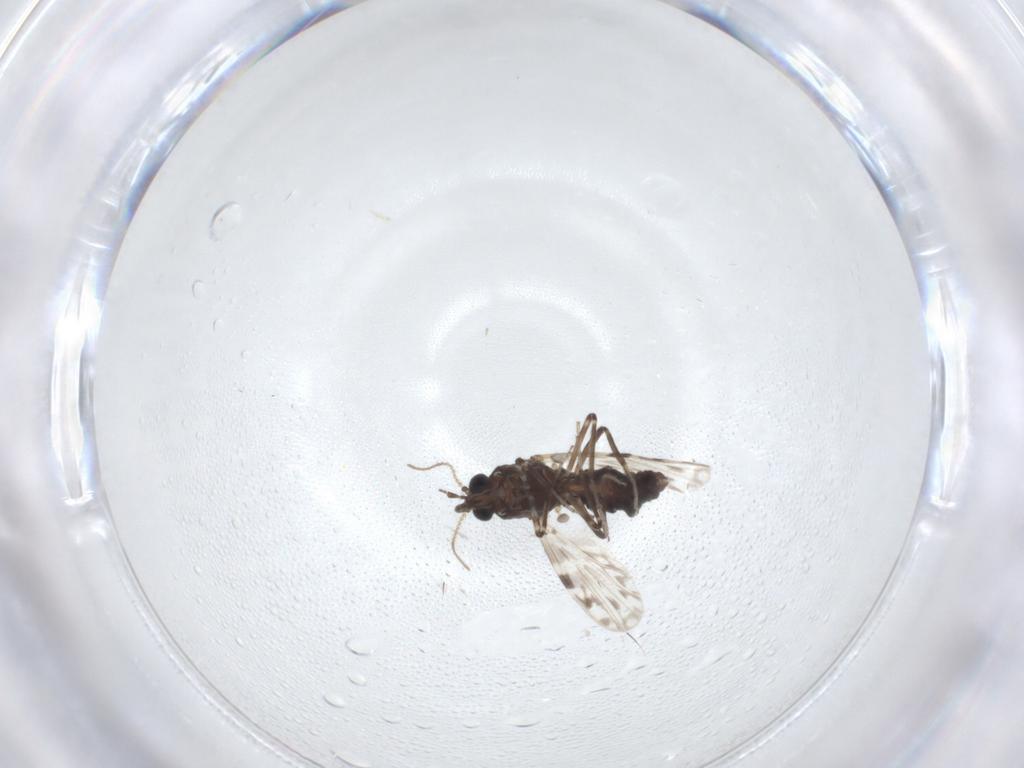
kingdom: Animalia
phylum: Arthropoda
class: Insecta
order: Diptera
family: Ceratopogonidae
